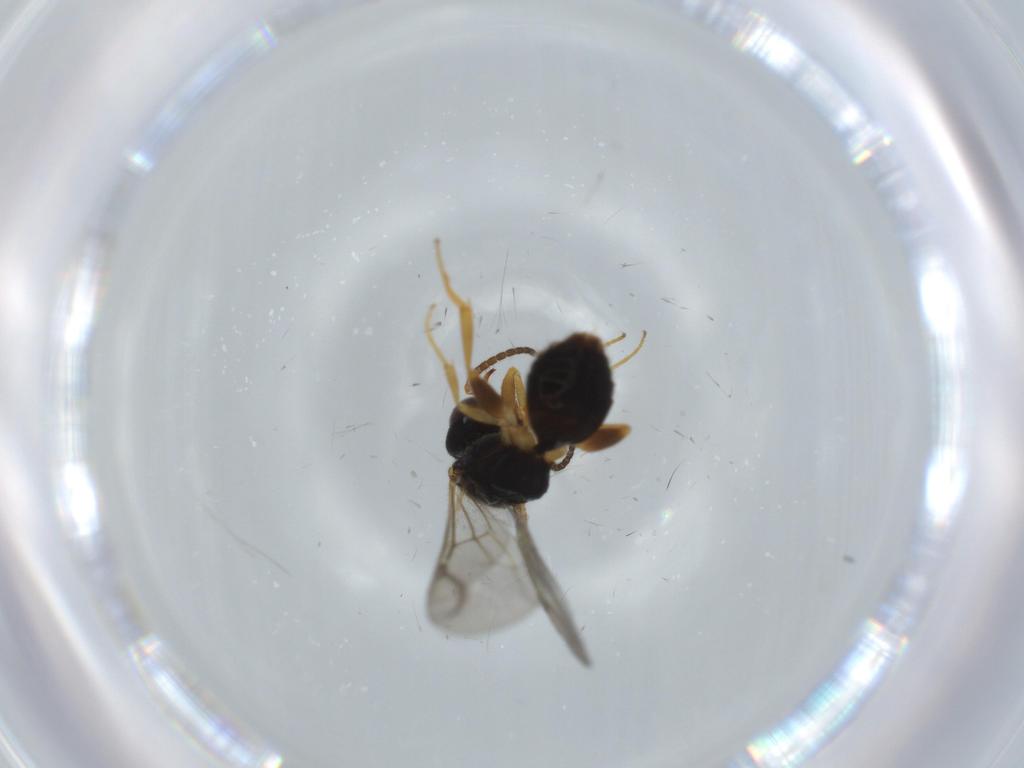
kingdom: Animalia
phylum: Arthropoda
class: Insecta
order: Hymenoptera
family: Bethylidae
